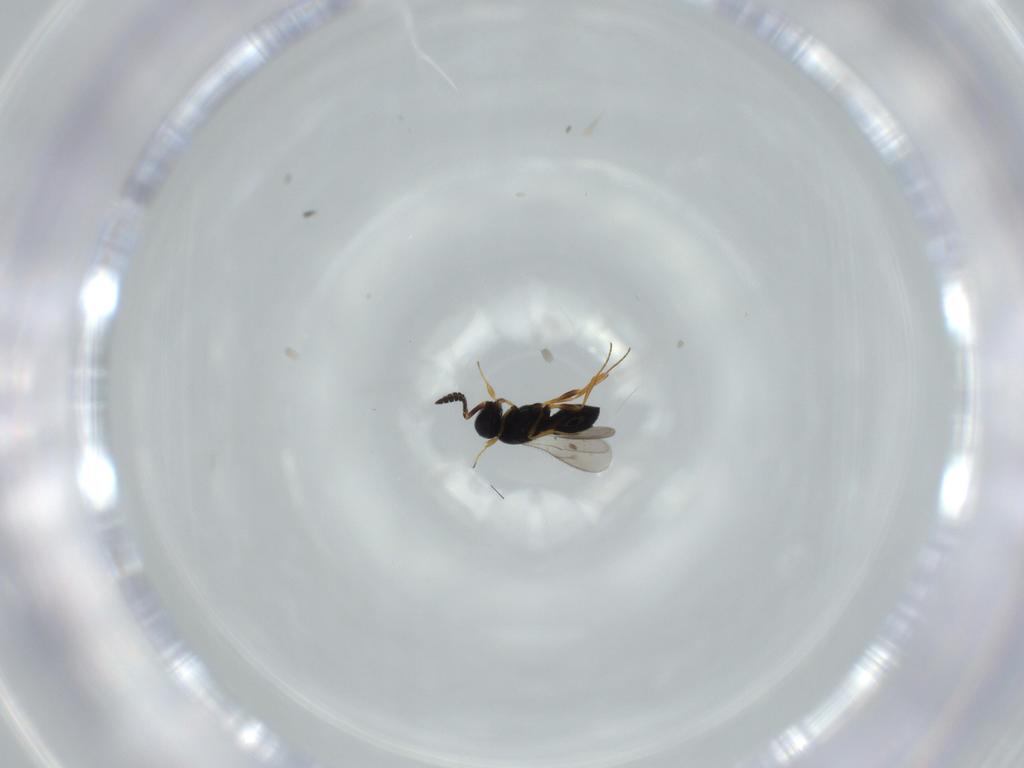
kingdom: Animalia
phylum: Arthropoda
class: Insecta
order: Hymenoptera
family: Scelionidae
